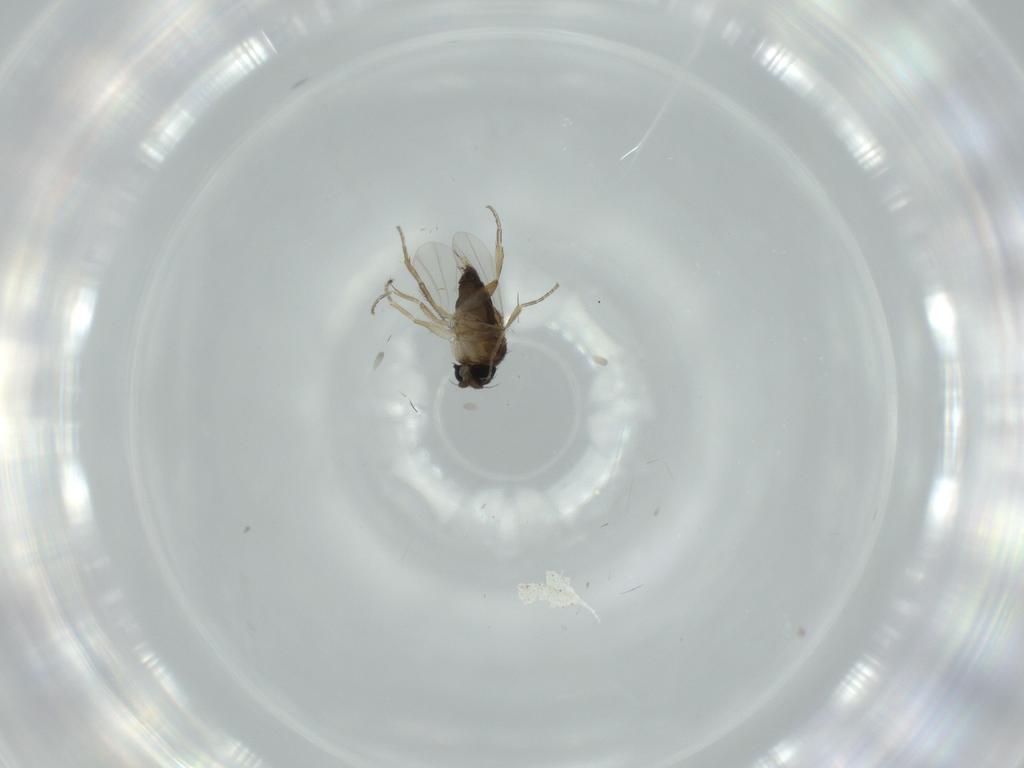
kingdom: Animalia
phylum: Arthropoda
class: Insecta
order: Diptera
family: Phoridae
